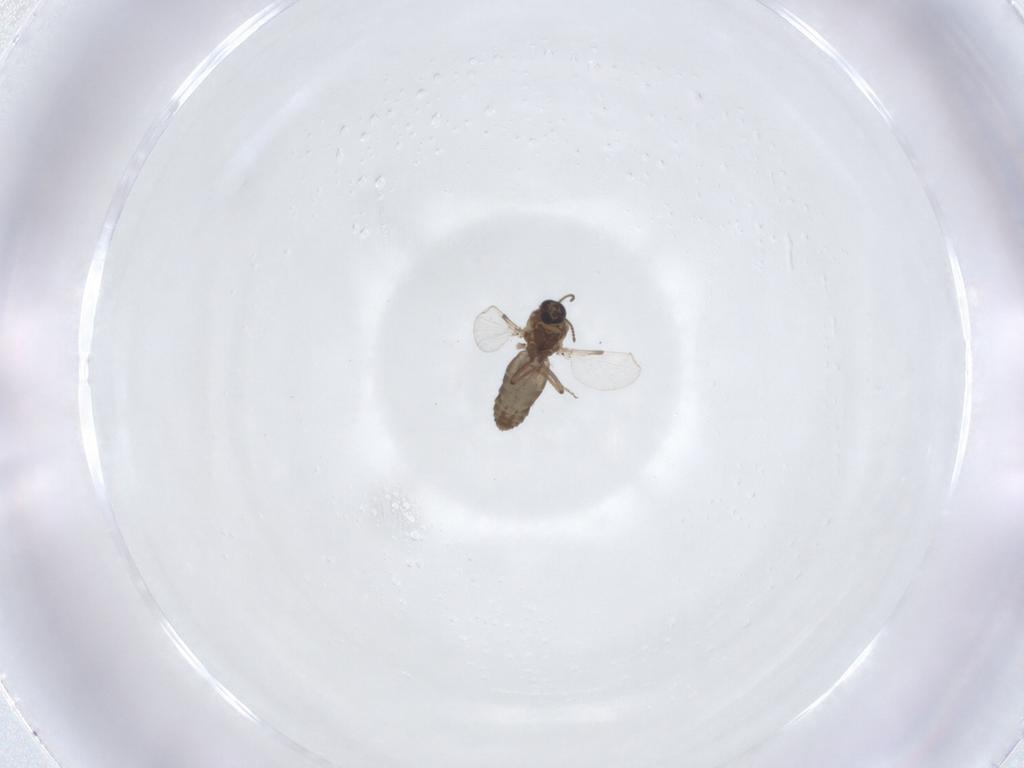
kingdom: Animalia
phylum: Arthropoda
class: Insecta
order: Diptera
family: Ceratopogonidae
